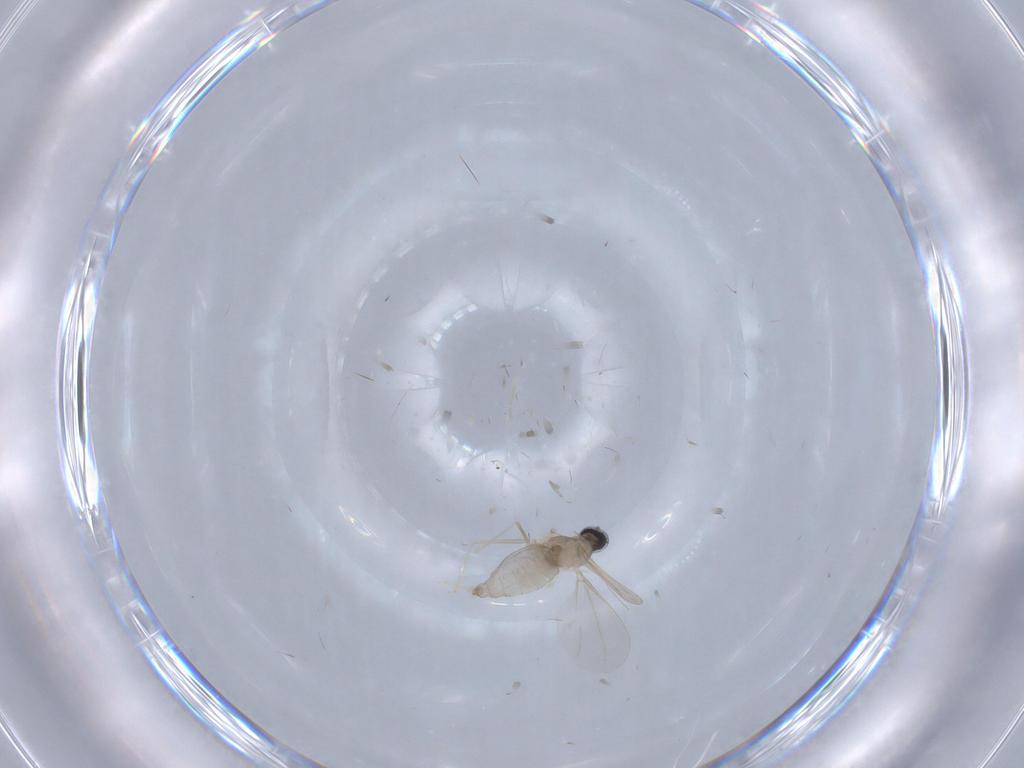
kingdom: Animalia
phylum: Arthropoda
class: Insecta
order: Diptera
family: Cecidomyiidae
